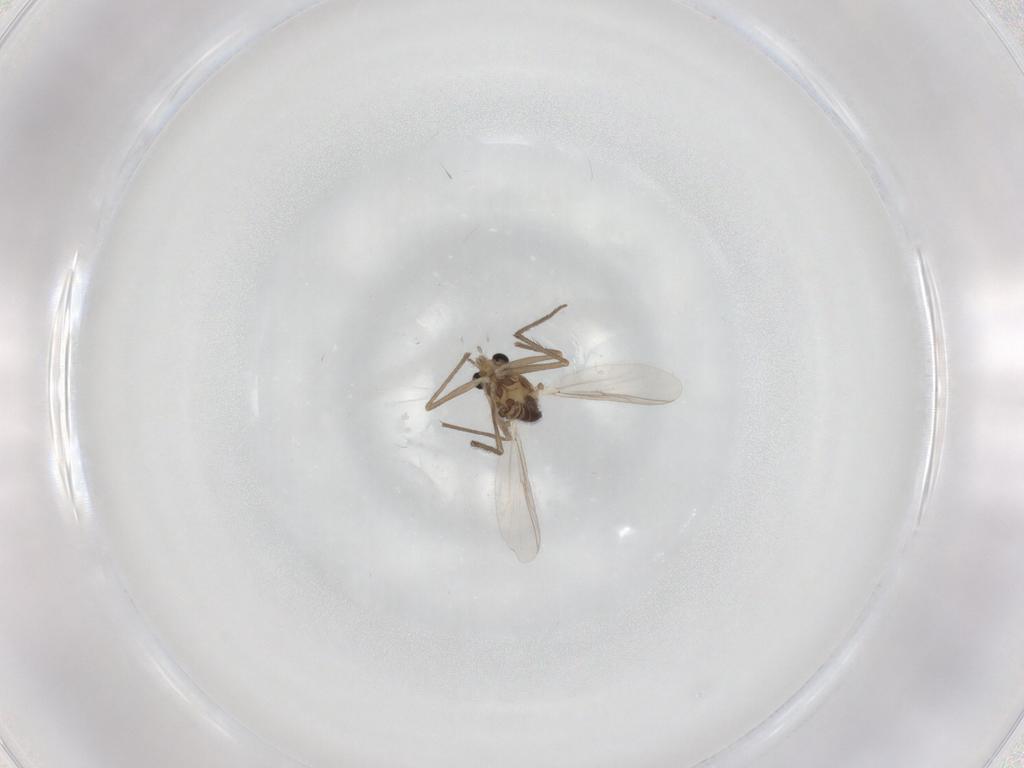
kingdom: Animalia
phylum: Arthropoda
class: Insecta
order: Diptera
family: Chironomidae
